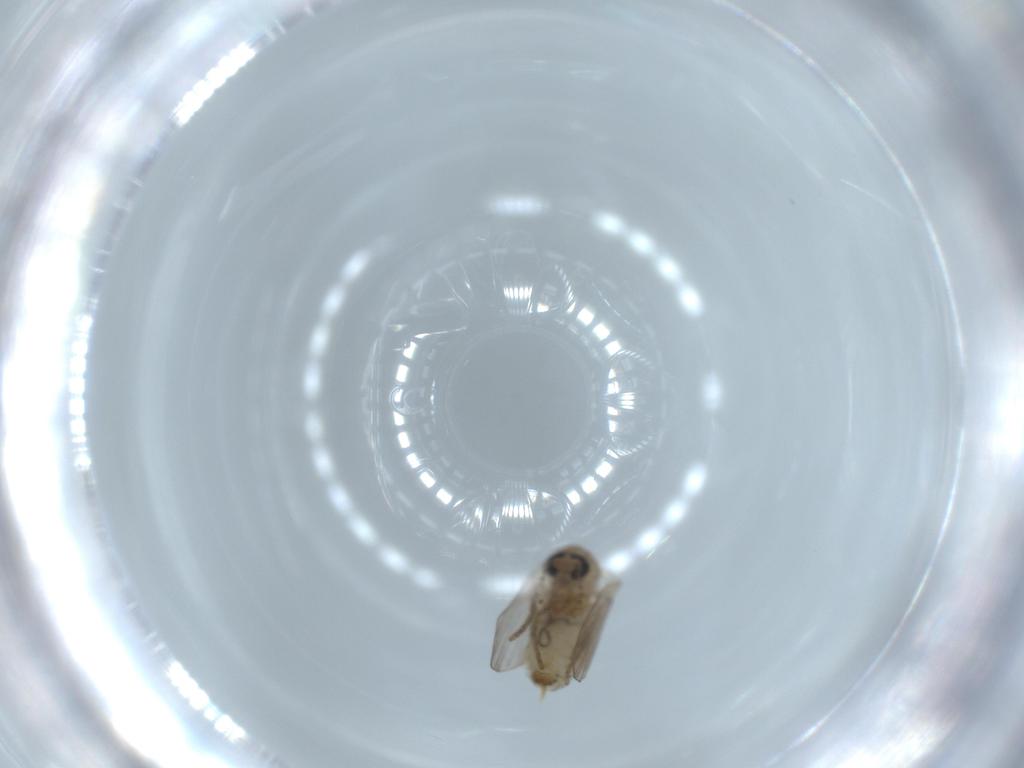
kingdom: Animalia
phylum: Arthropoda
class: Insecta
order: Diptera
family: Psychodidae
